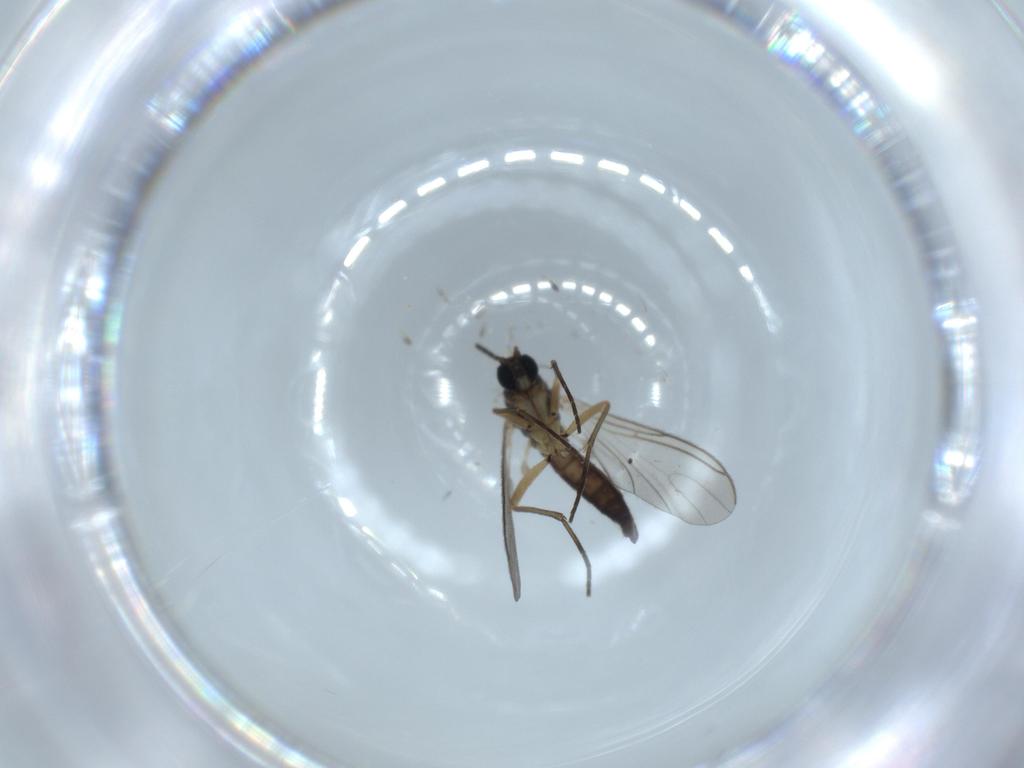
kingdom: Animalia
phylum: Arthropoda
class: Insecta
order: Diptera
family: Sciaridae
